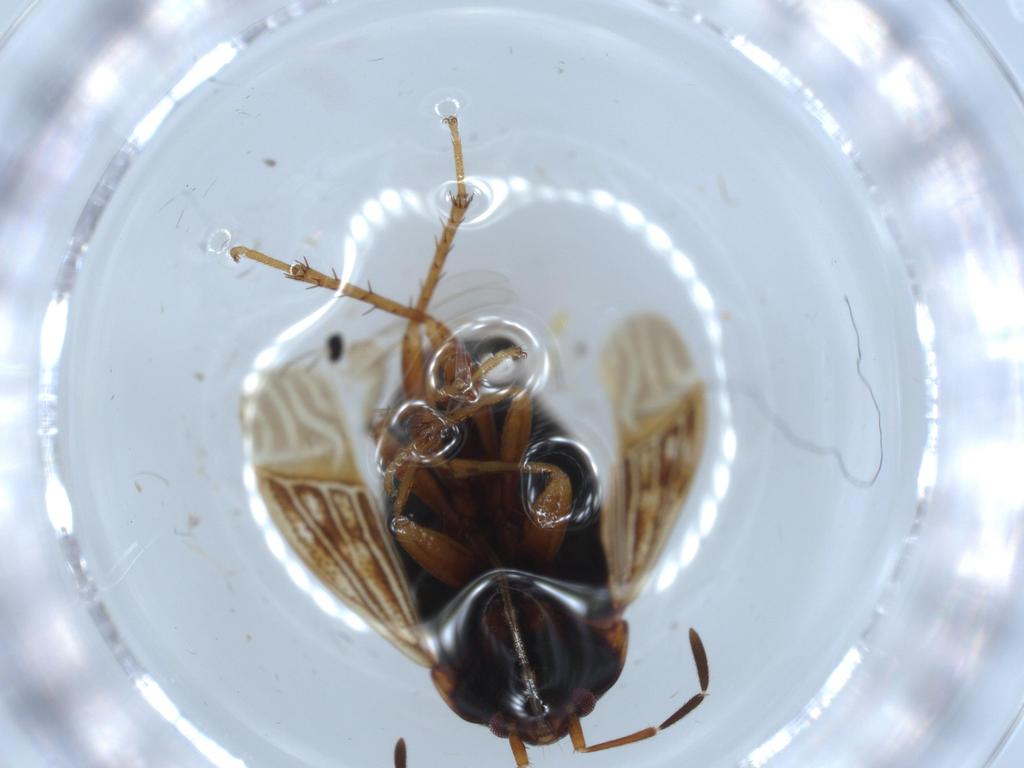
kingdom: Animalia
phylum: Arthropoda
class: Insecta
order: Hemiptera
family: Rhyparochromidae
